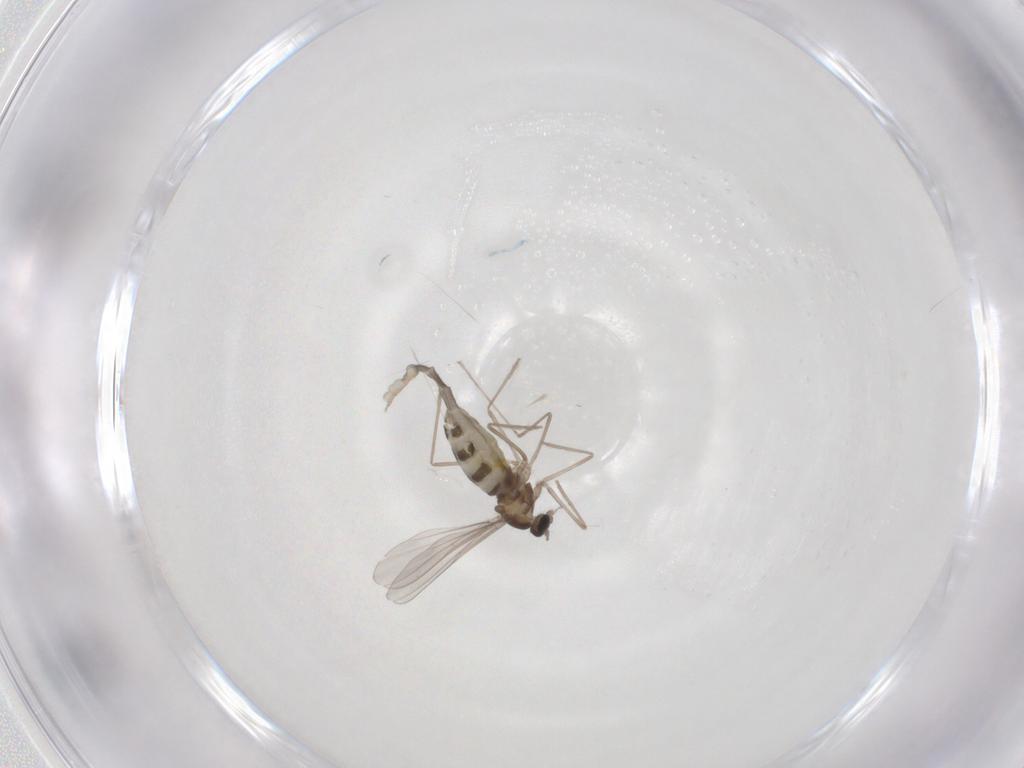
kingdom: Animalia
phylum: Arthropoda
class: Insecta
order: Diptera
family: Cecidomyiidae
